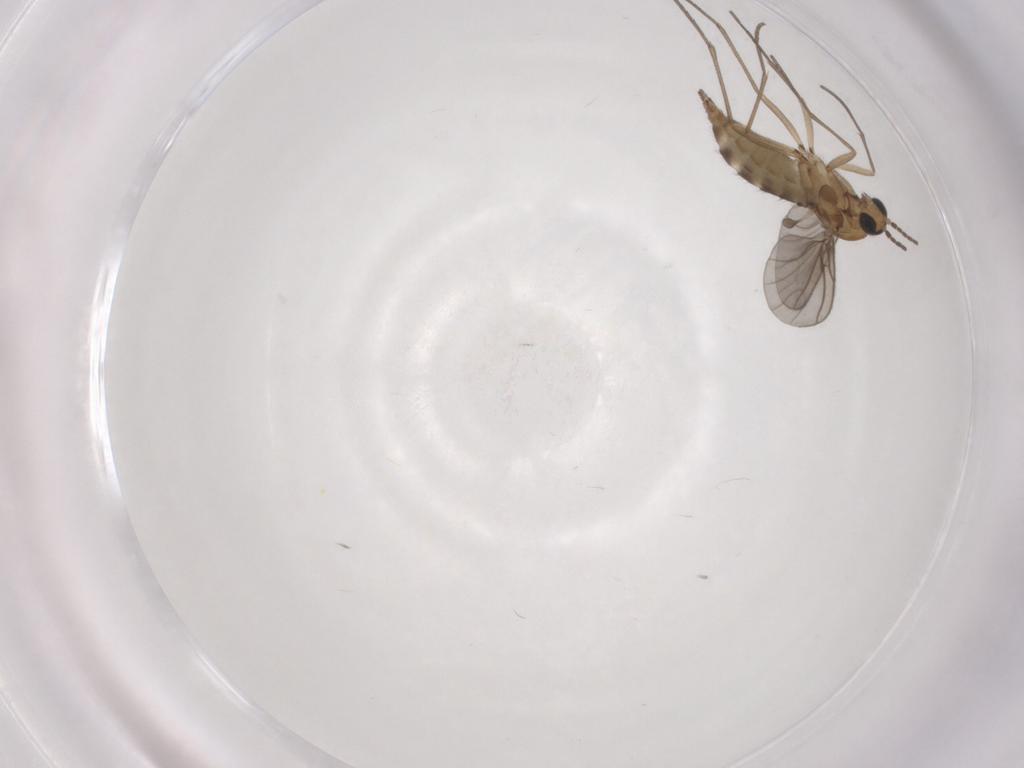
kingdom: Animalia
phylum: Arthropoda
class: Insecta
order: Diptera
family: Sciaridae
